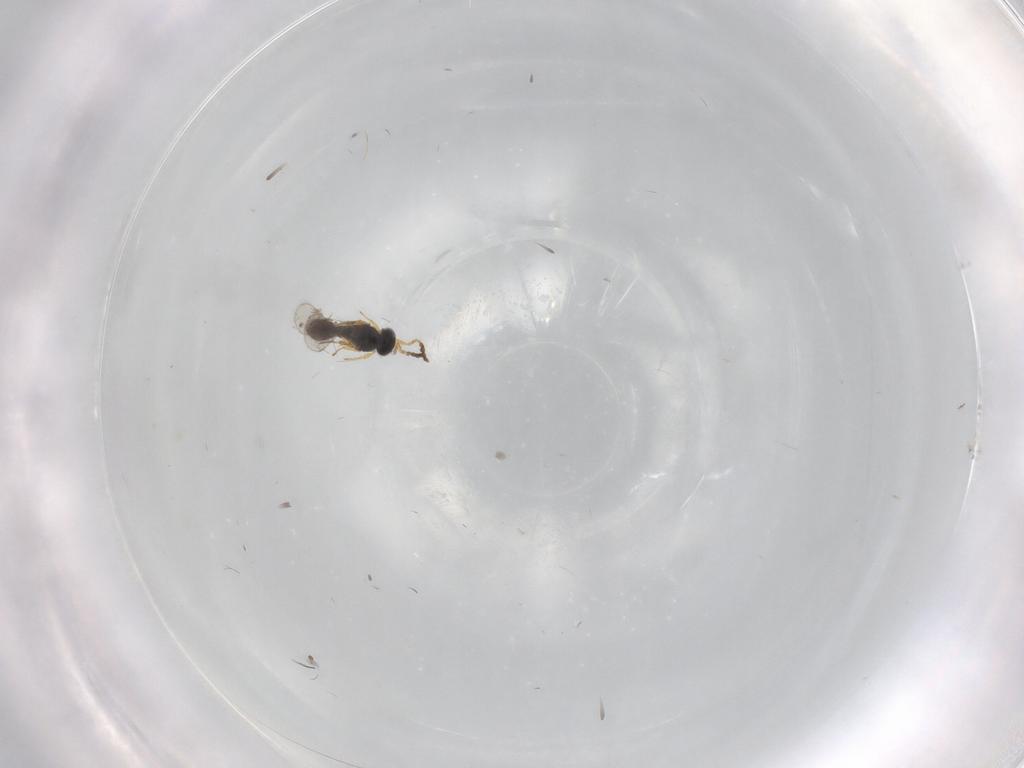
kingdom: Animalia
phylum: Arthropoda
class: Insecta
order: Hymenoptera
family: Platygastridae
